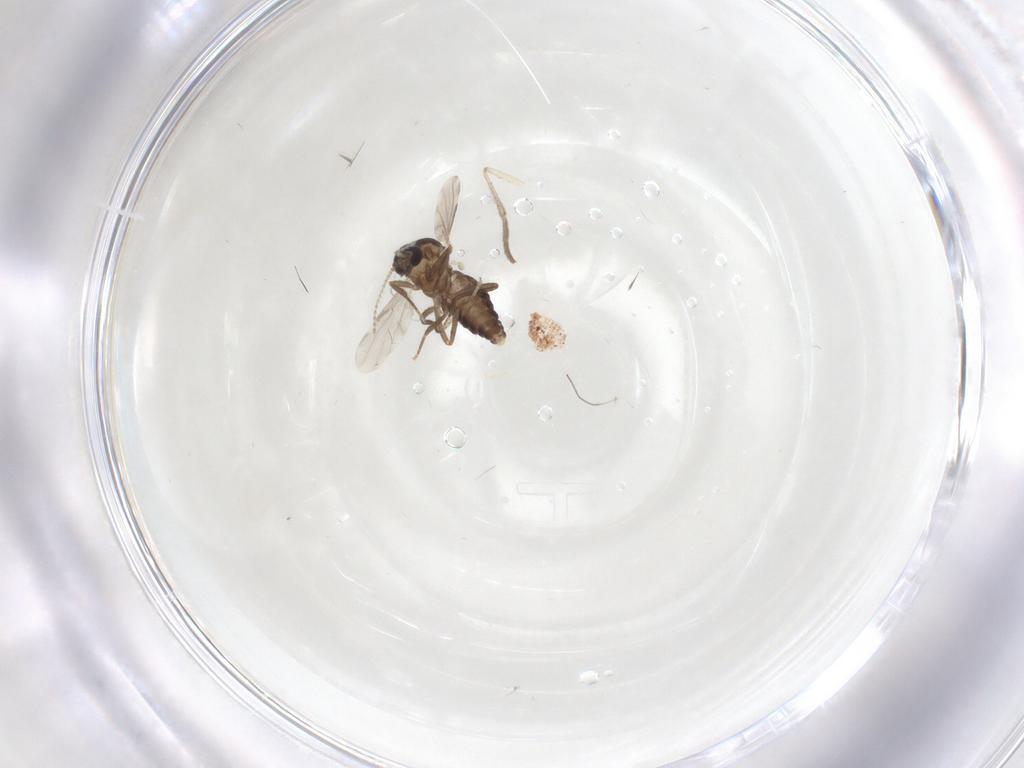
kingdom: Animalia
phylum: Arthropoda
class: Insecta
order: Diptera
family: Ceratopogonidae
